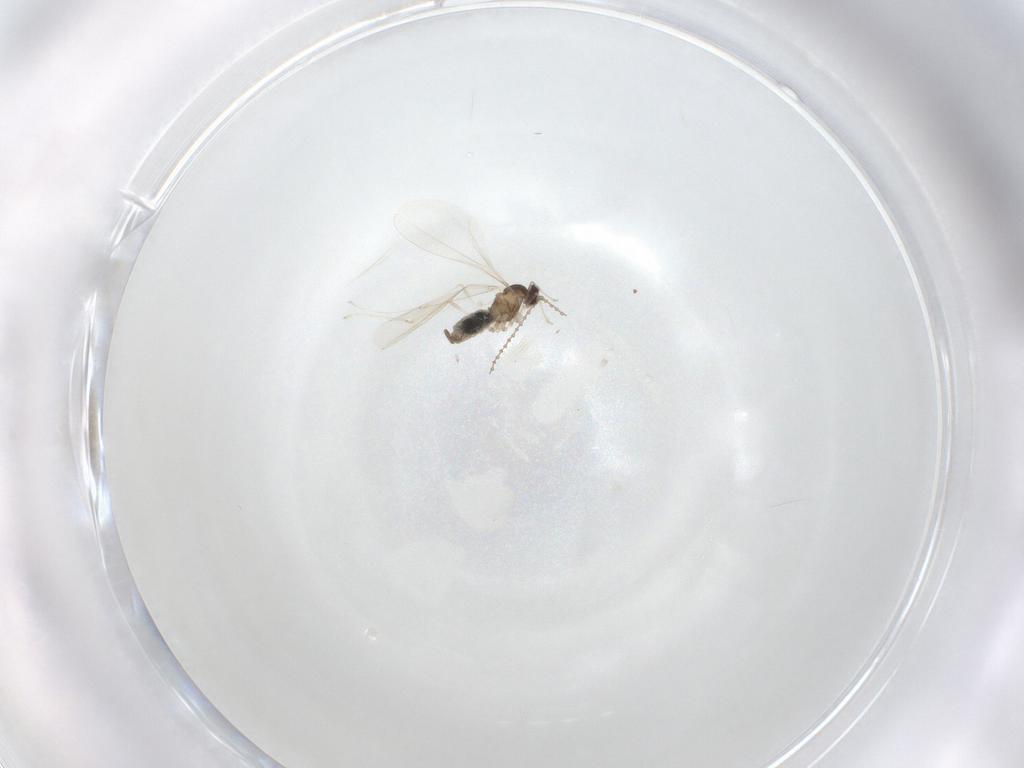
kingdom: Animalia
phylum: Arthropoda
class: Insecta
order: Diptera
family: Cecidomyiidae
